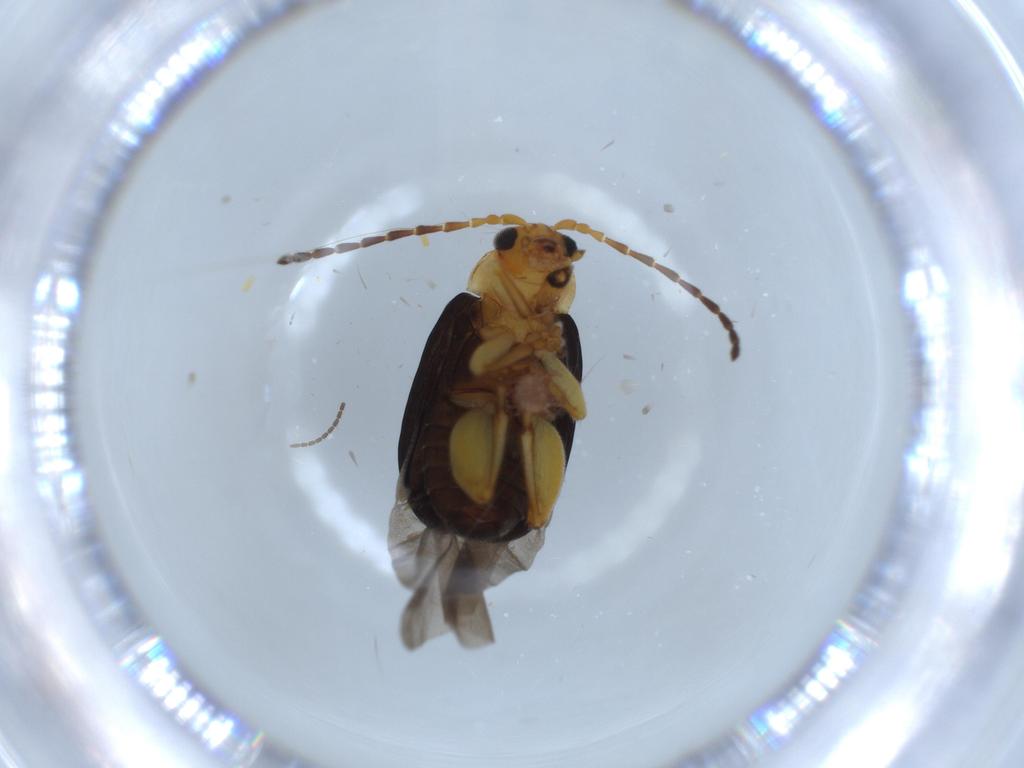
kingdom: Animalia
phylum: Arthropoda
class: Insecta
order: Coleoptera
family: Chrysomelidae
